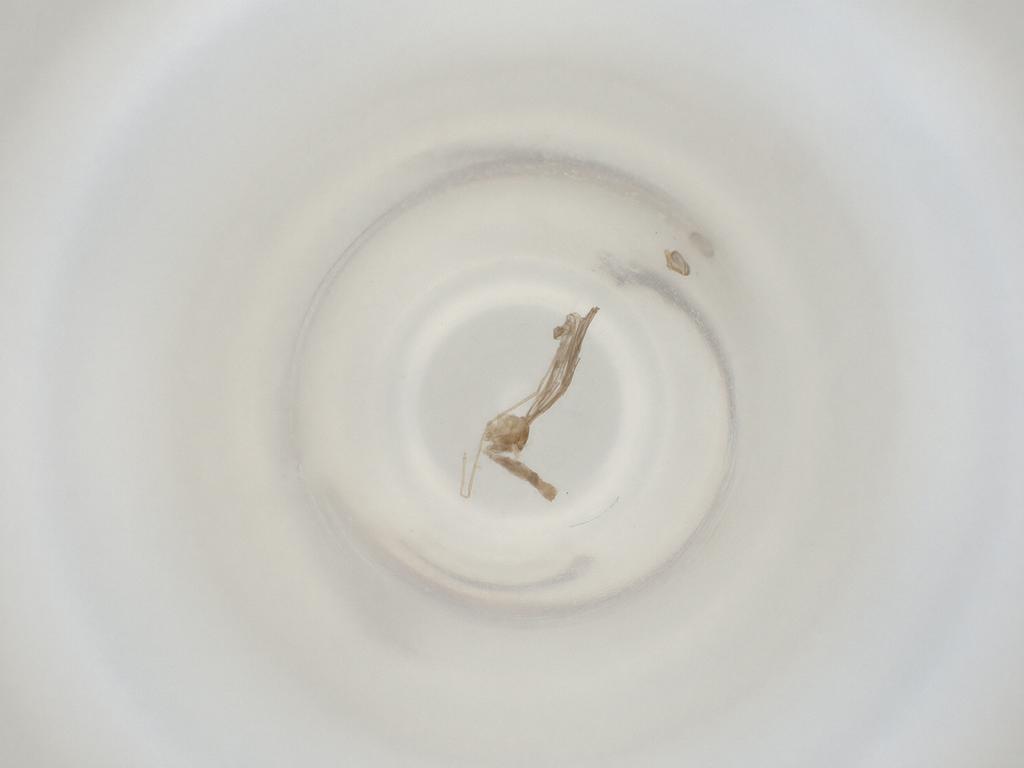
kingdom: Animalia
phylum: Arthropoda
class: Insecta
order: Diptera
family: Cecidomyiidae
